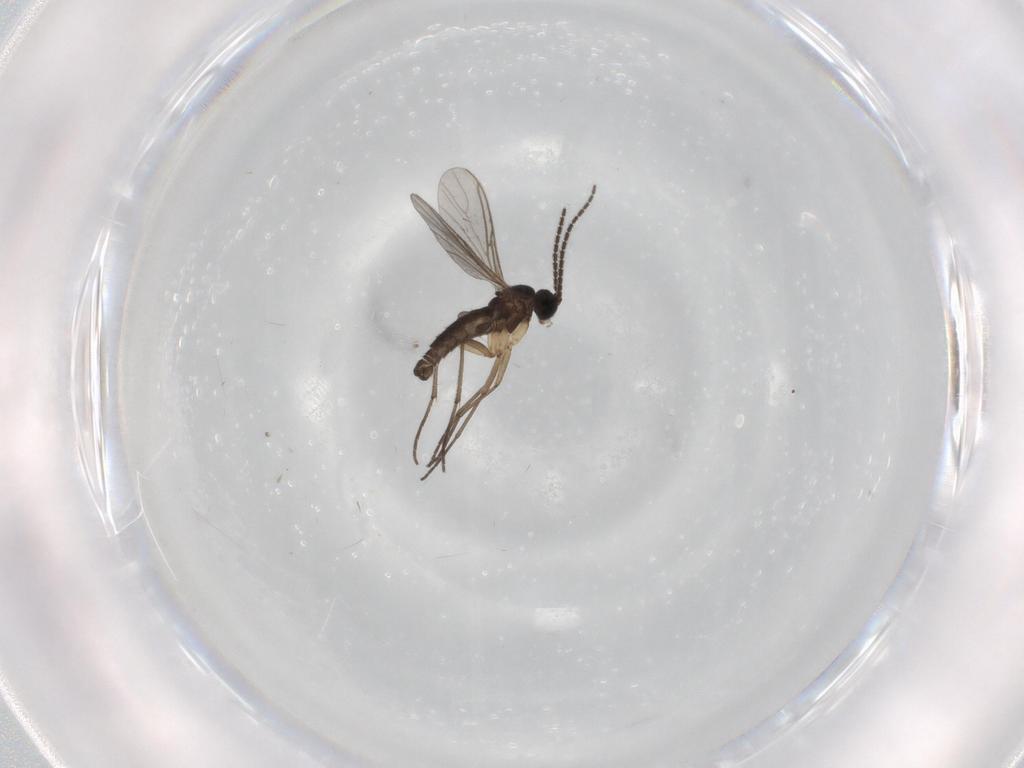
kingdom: Animalia
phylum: Arthropoda
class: Insecta
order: Diptera
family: Sciaridae
